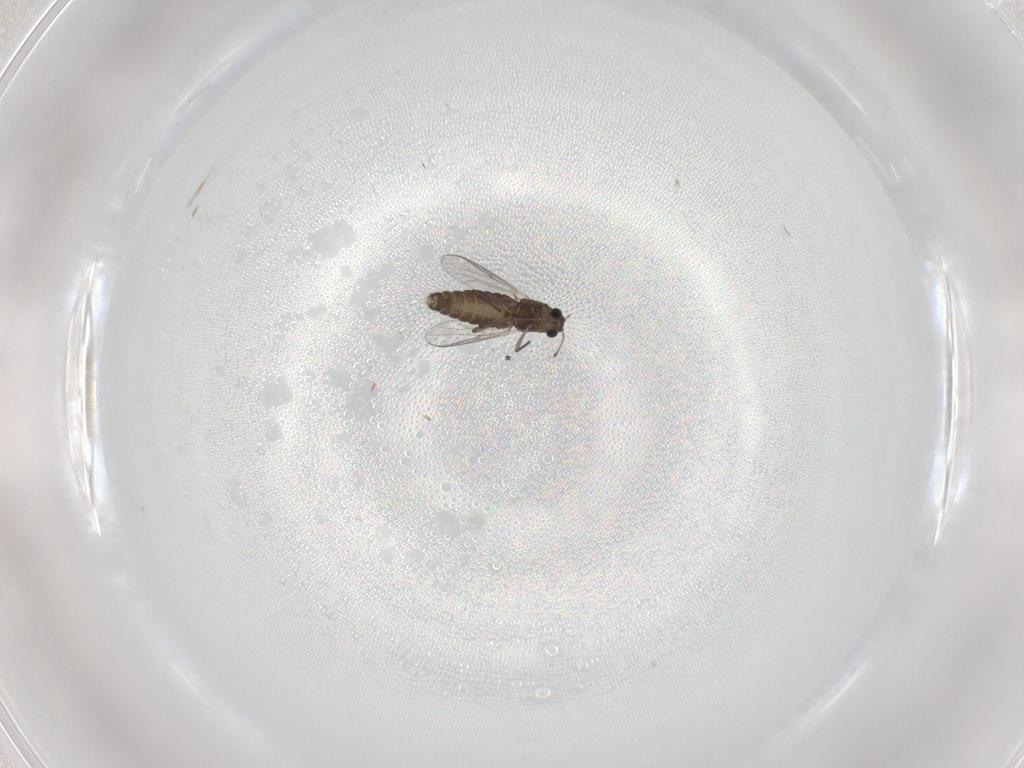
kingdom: Animalia
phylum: Arthropoda
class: Insecta
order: Diptera
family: Chironomidae
